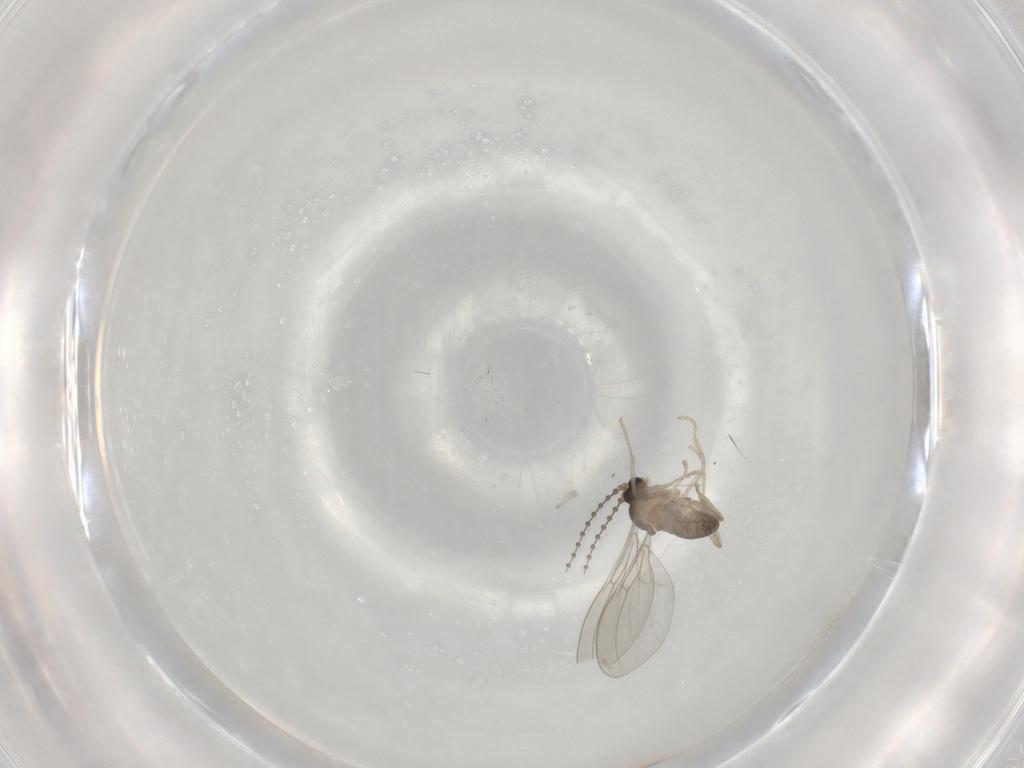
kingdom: Animalia
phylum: Arthropoda
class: Insecta
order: Diptera
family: Cecidomyiidae
